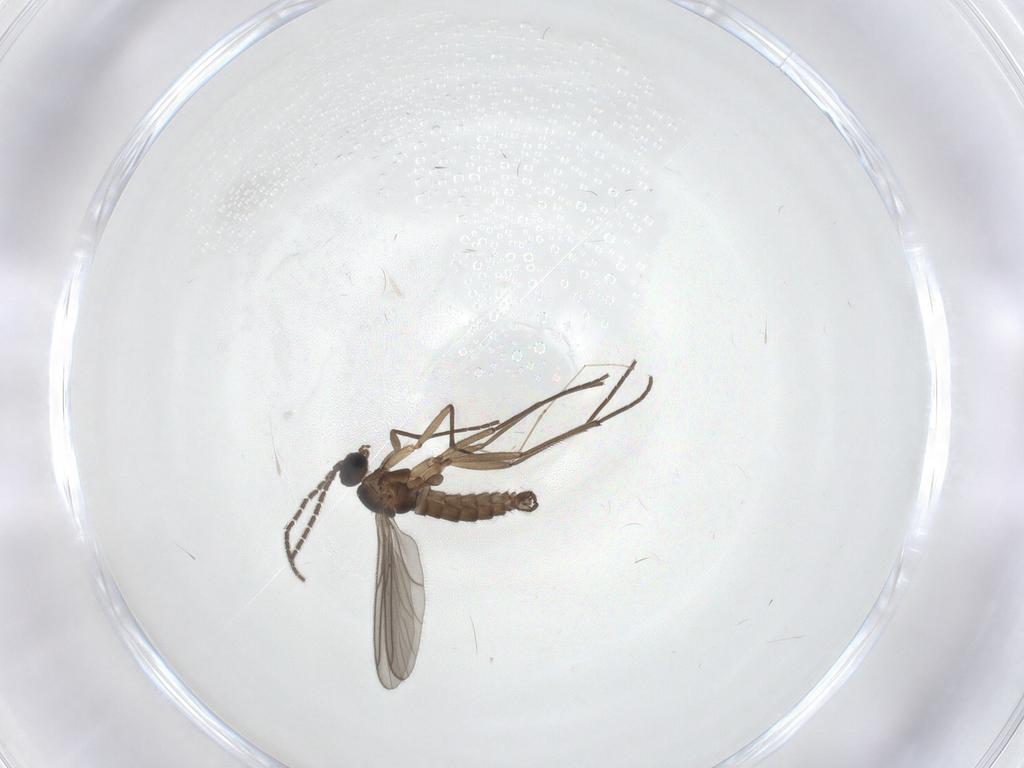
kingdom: Animalia
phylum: Arthropoda
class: Insecta
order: Diptera
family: Sciaridae
